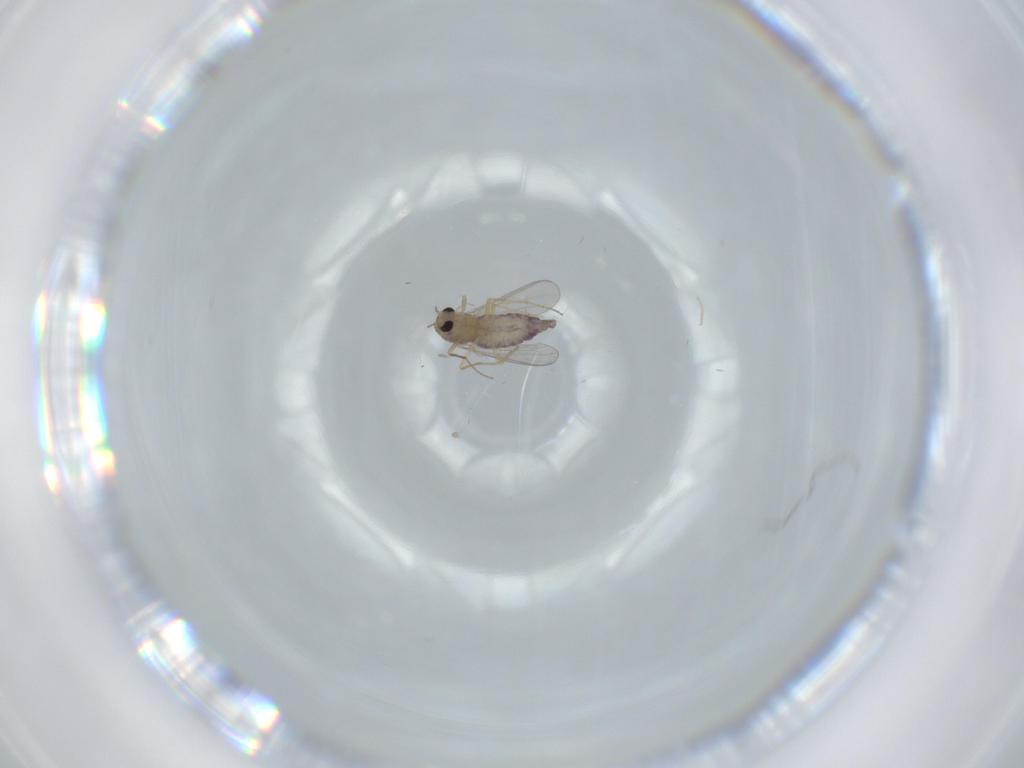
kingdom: Animalia
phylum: Arthropoda
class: Insecta
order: Diptera
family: Chironomidae
